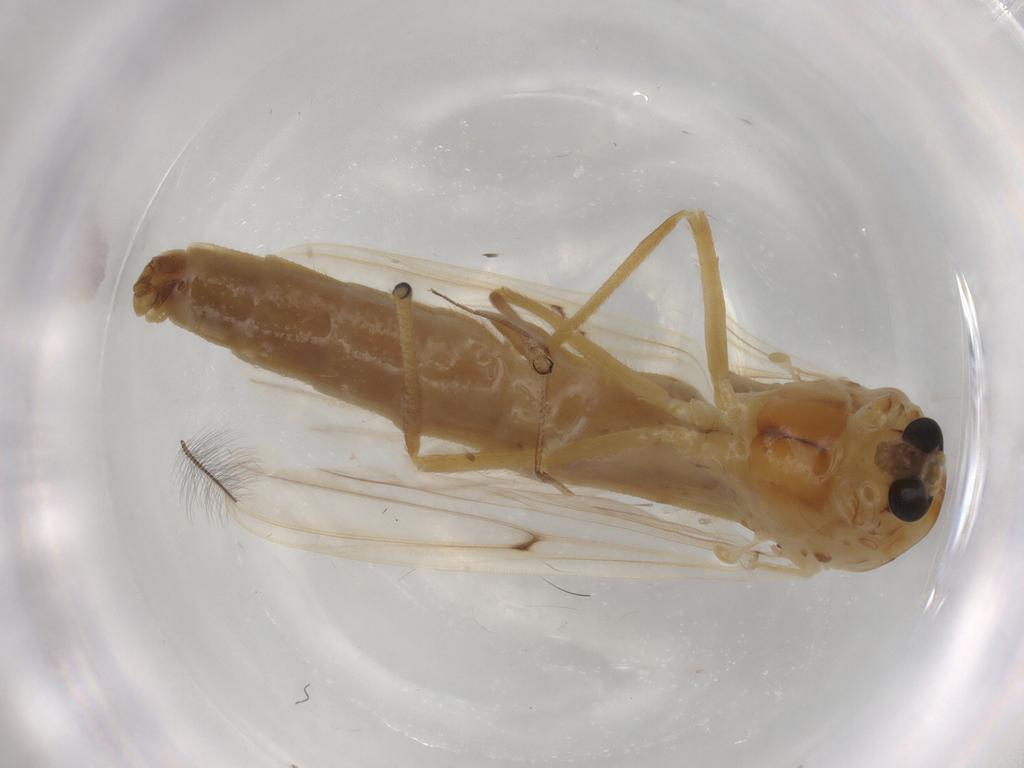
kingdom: Animalia
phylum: Arthropoda
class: Insecta
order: Diptera
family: Chironomidae
